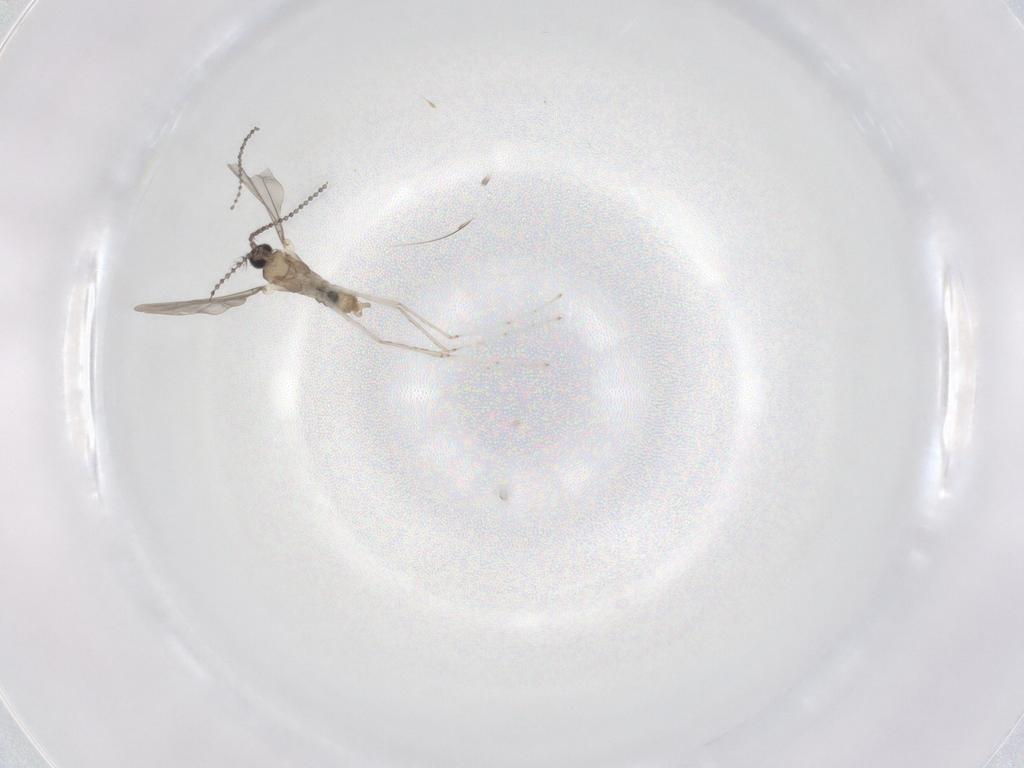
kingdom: Animalia
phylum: Arthropoda
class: Insecta
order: Diptera
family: Cecidomyiidae
